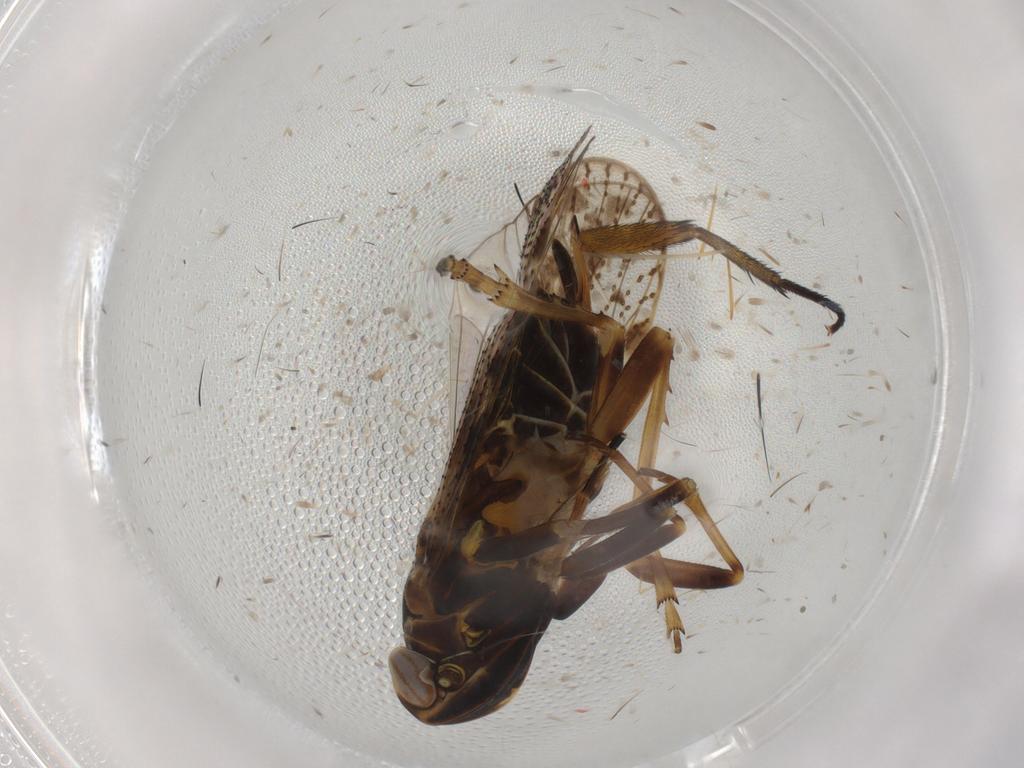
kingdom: Animalia
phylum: Arthropoda
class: Insecta
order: Hemiptera
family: Cixiidae
